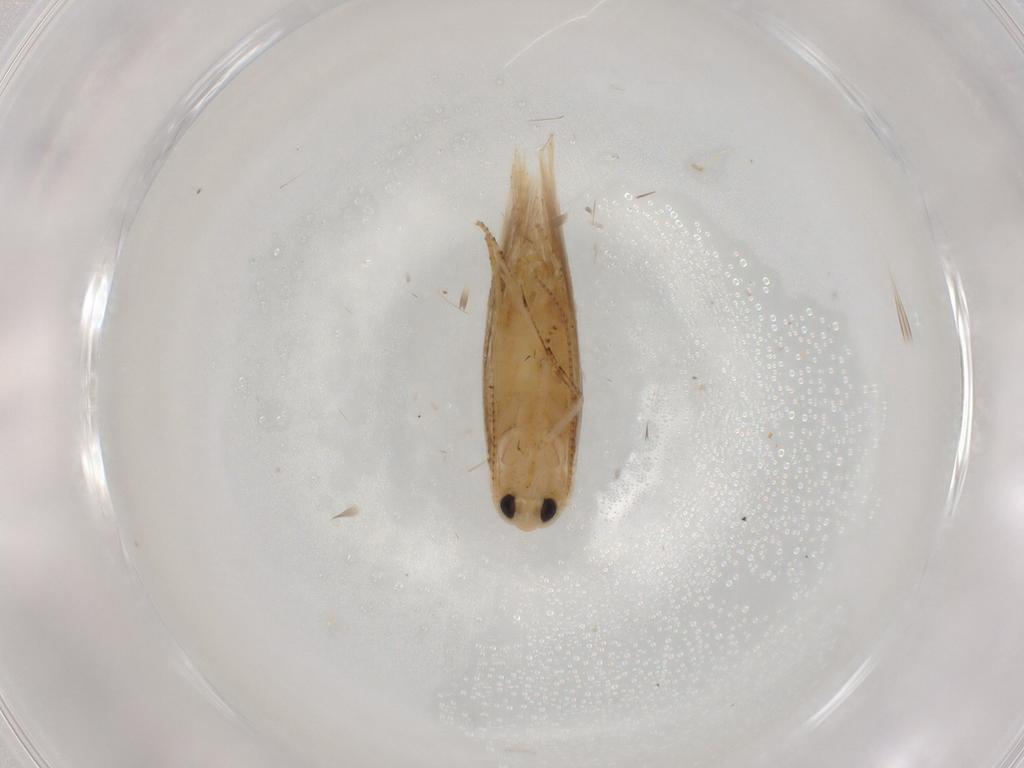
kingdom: Animalia
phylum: Arthropoda
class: Insecta
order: Lepidoptera
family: Bucculatricidae
